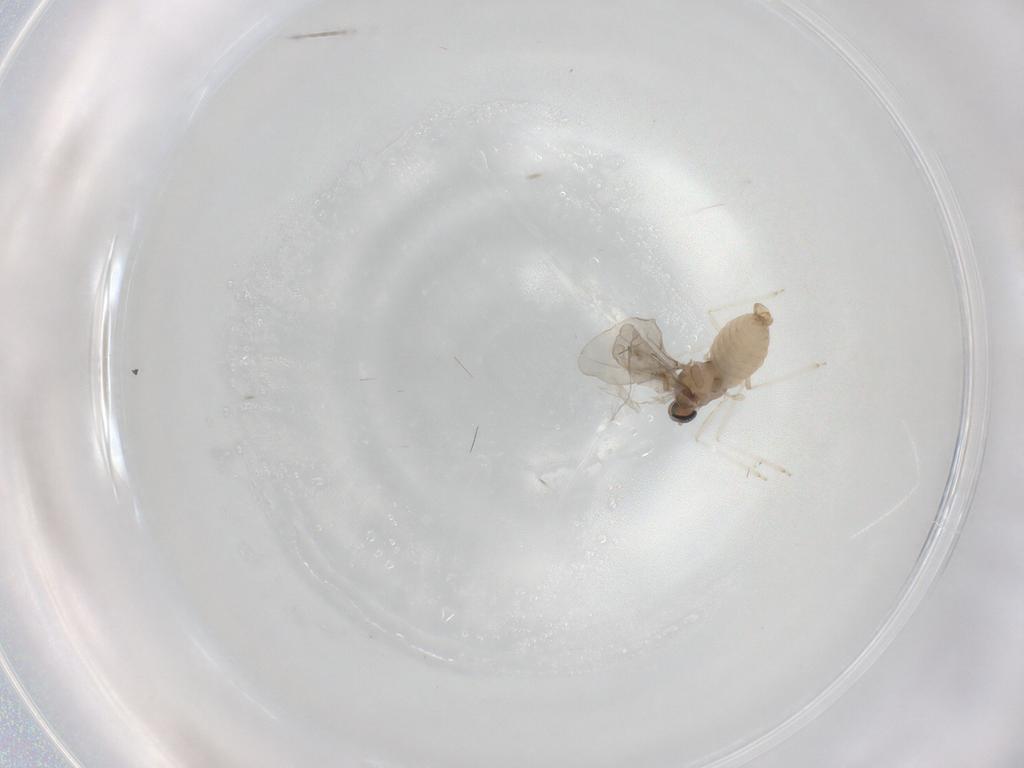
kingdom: Animalia
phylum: Arthropoda
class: Insecta
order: Diptera
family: Cecidomyiidae
